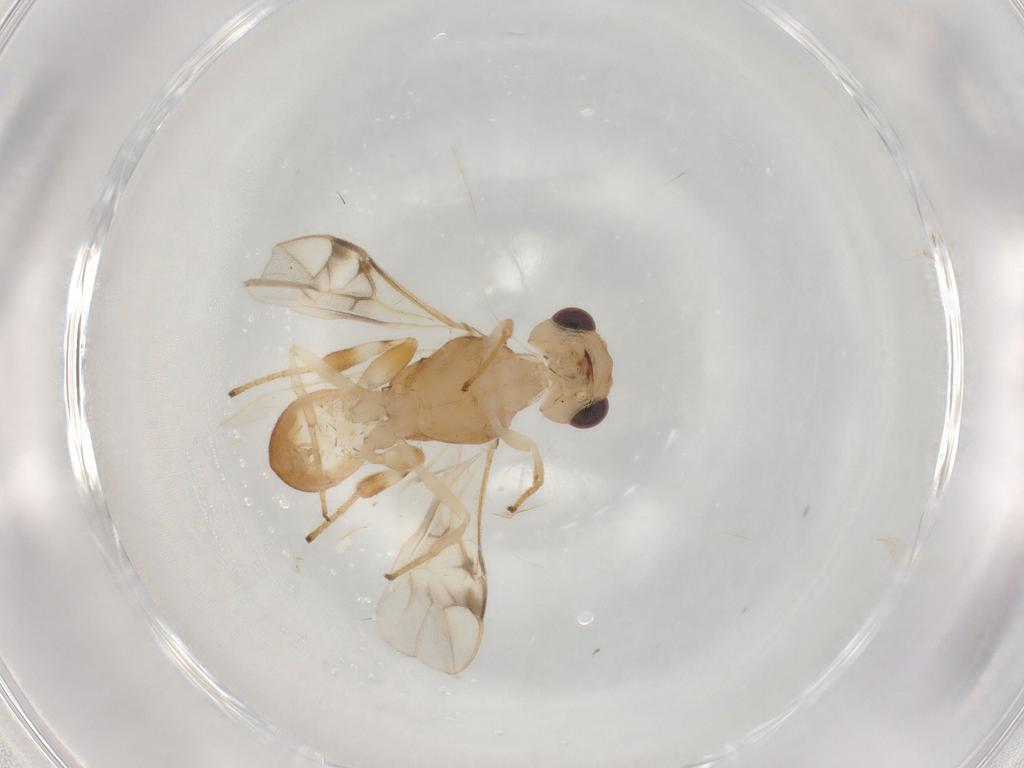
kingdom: Animalia
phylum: Arthropoda
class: Insecta
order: Hymenoptera
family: Braconidae
